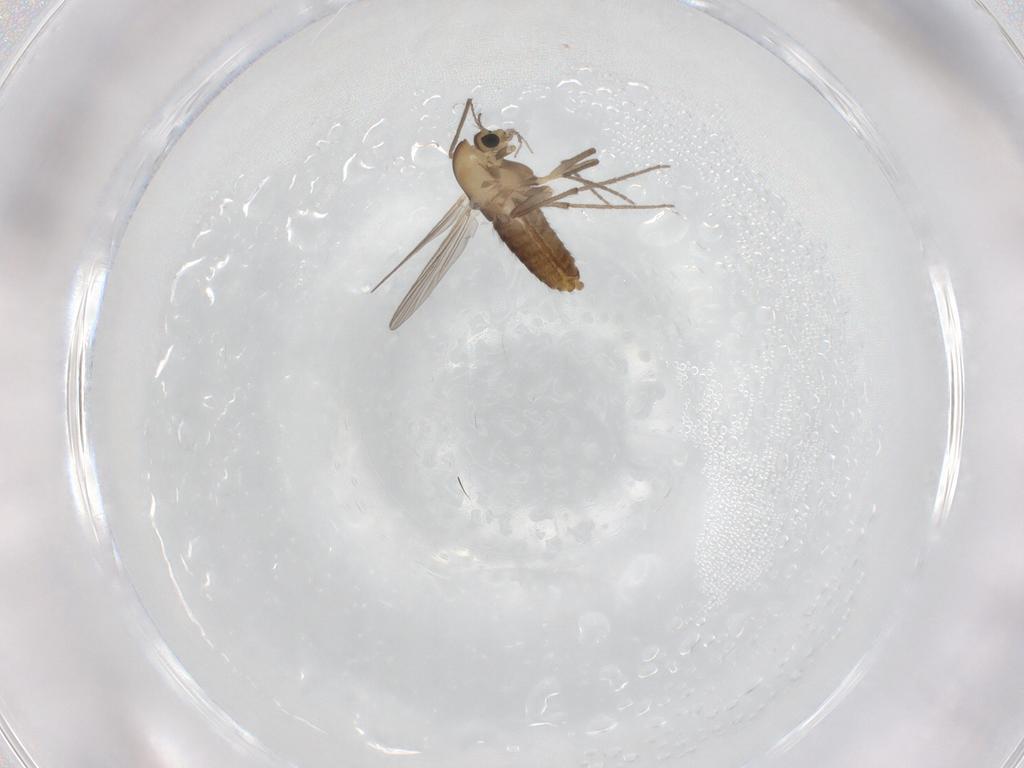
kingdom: Animalia
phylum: Arthropoda
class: Insecta
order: Diptera
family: Chironomidae
